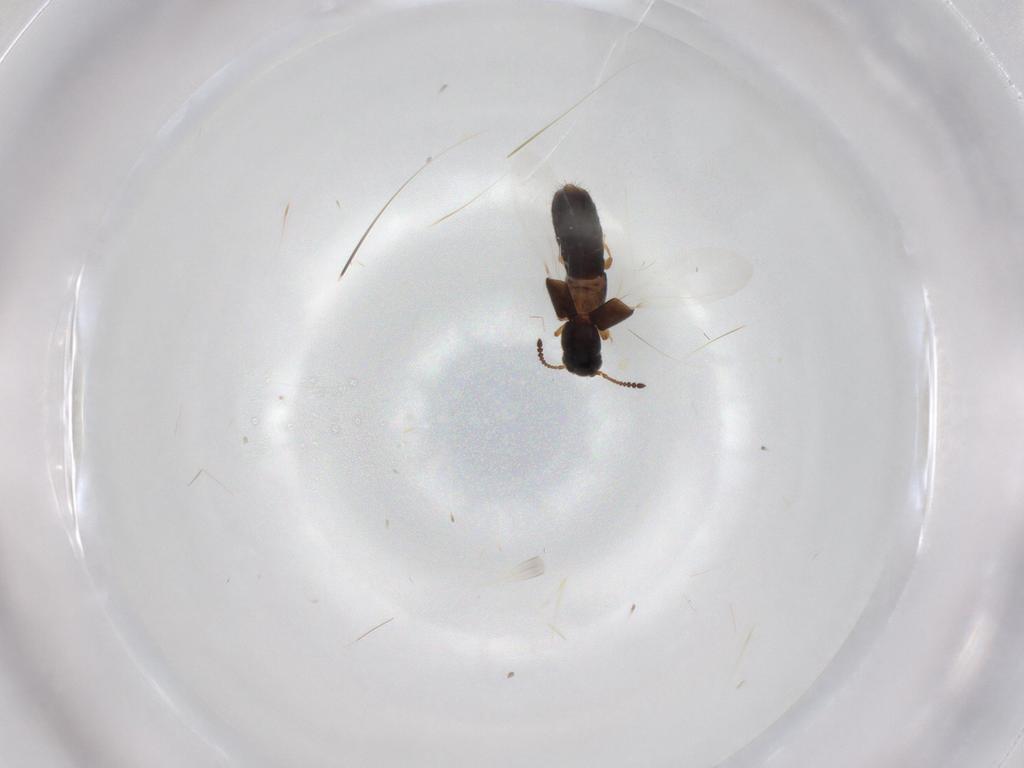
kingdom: Animalia
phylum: Arthropoda
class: Insecta
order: Coleoptera
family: Staphylinidae
